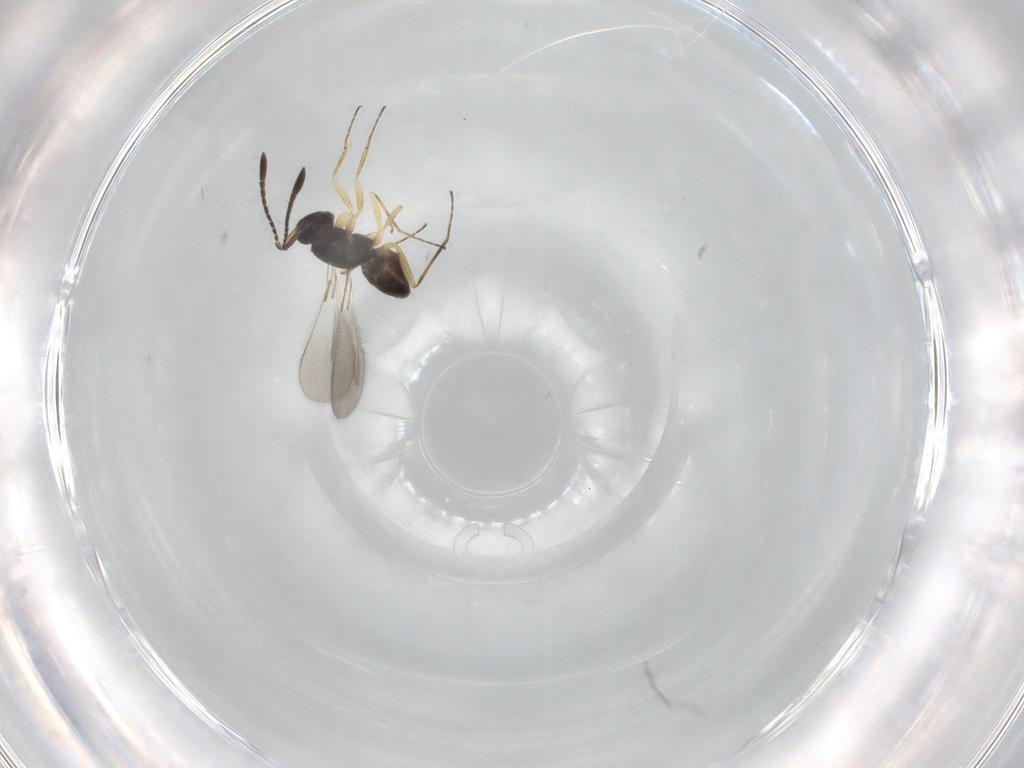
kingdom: Animalia
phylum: Arthropoda
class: Insecta
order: Hymenoptera
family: Mymaridae
